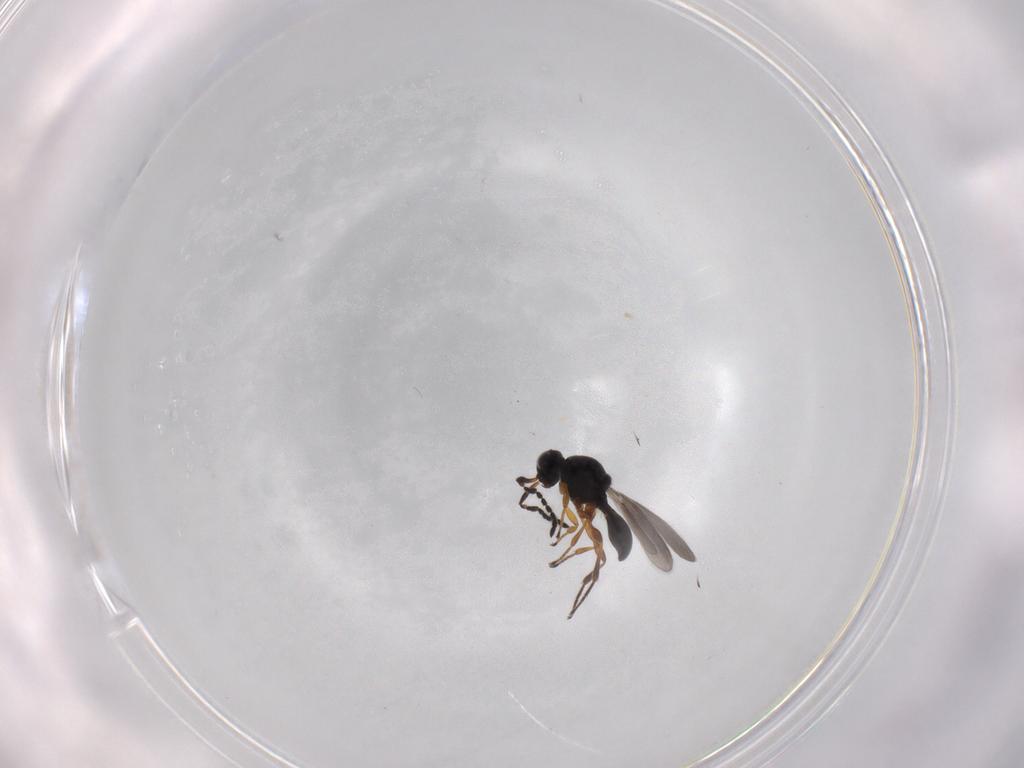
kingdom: Animalia
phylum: Arthropoda
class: Insecta
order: Hymenoptera
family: Platygastridae
